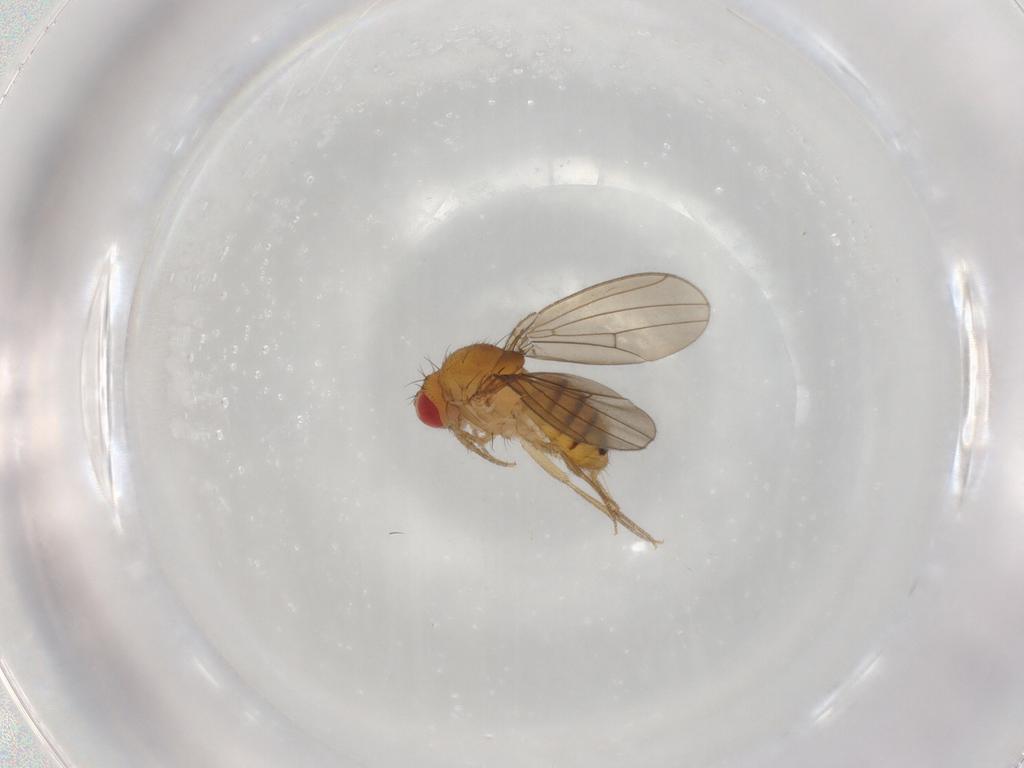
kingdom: Animalia
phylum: Arthropoda
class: Insecta
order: Diptera
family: Drosophilidae
